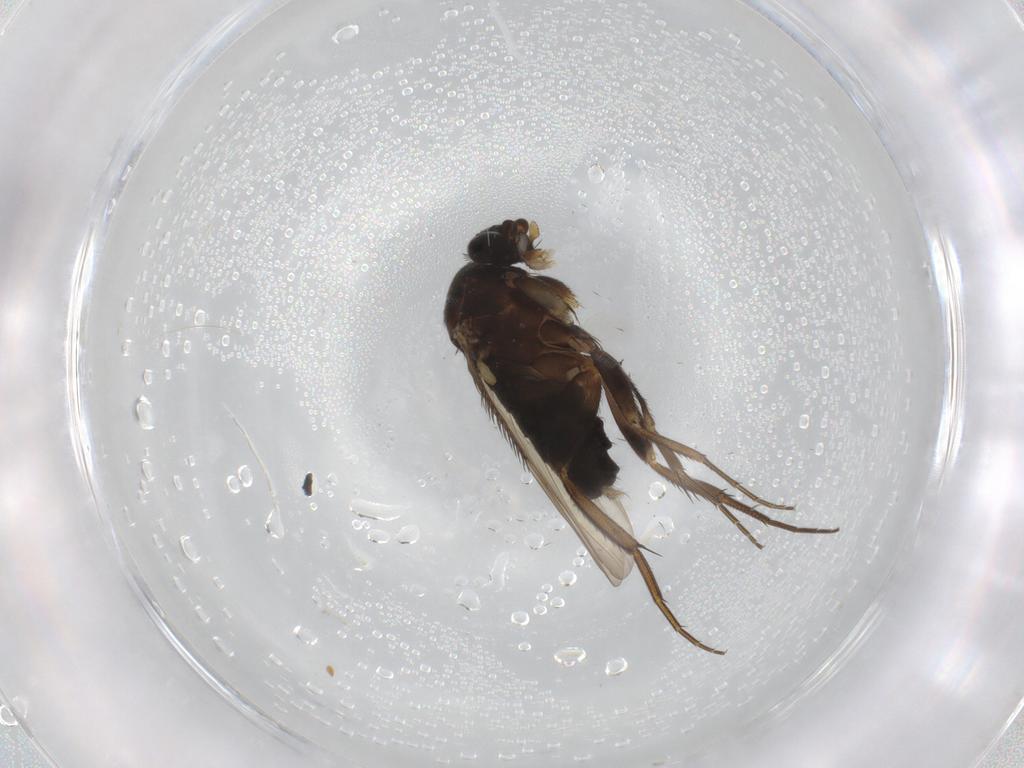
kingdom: Animalia
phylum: Arthropoda
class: Insecta
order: Diptera
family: Phoridae
